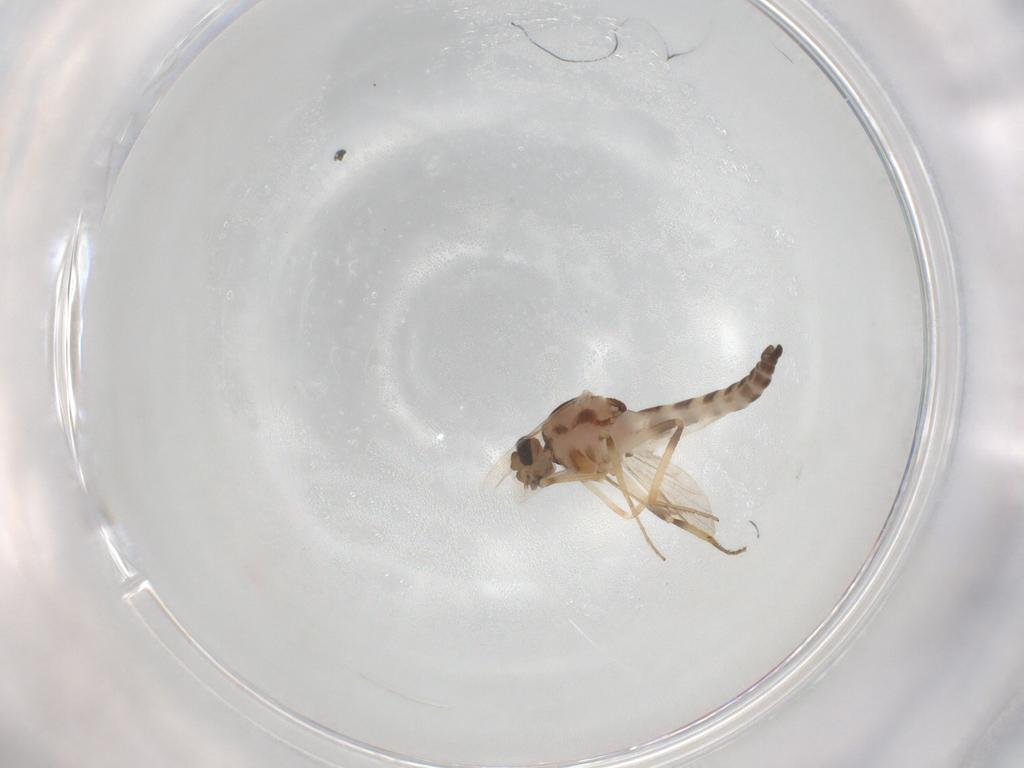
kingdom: Animalia
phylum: Arthropoda
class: Insecta
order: Diptera
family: Ceratopogonidae
